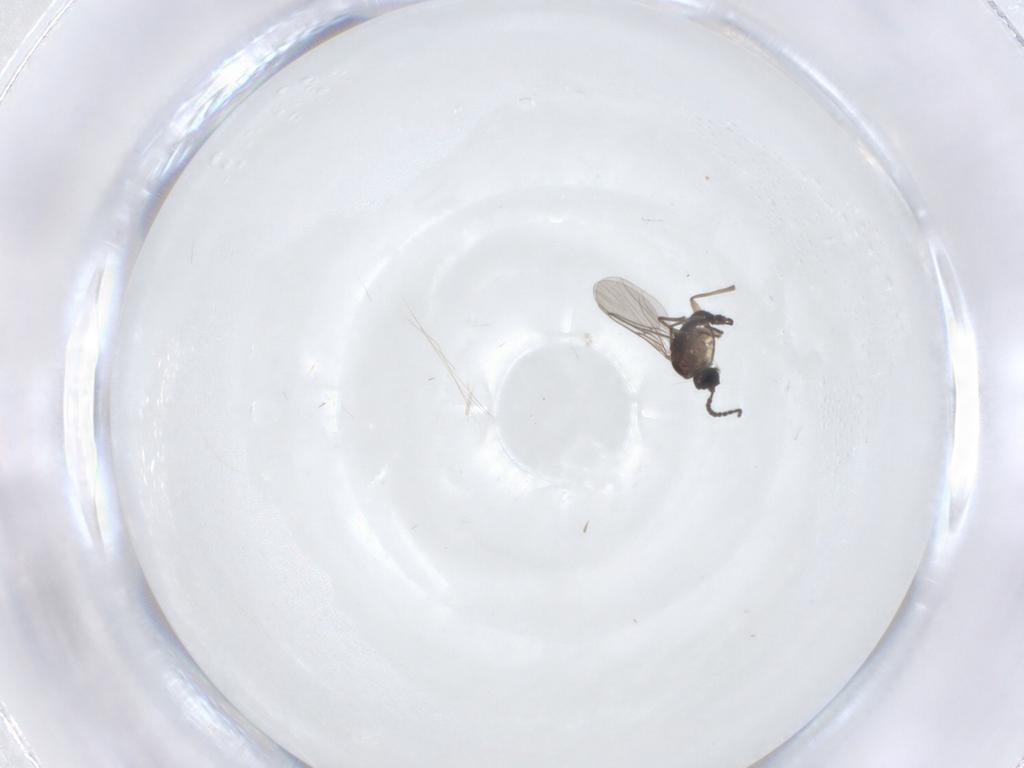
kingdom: Animalia
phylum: Arthropoda
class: Insecta
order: Diptera
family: Sciaridae
